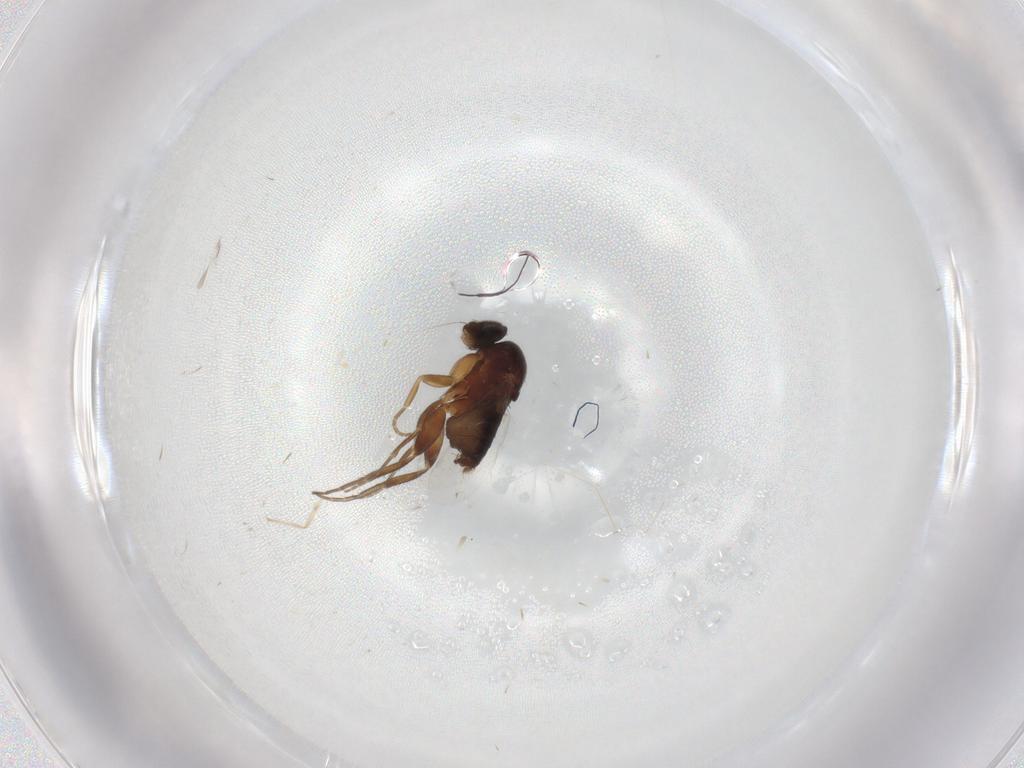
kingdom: Animalia
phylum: Arthropoda
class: Insecta
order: Diptera
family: Phoridae
